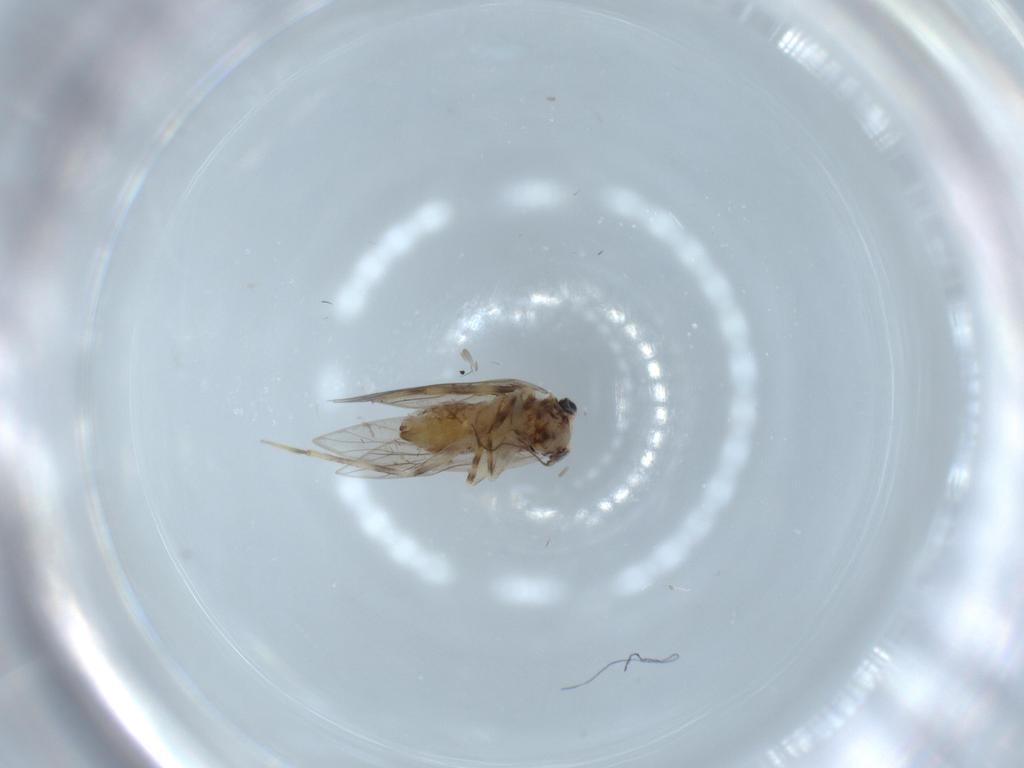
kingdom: Animalia
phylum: Arthropoda
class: Insecta
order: Psocodea
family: Lepidopsocidae
